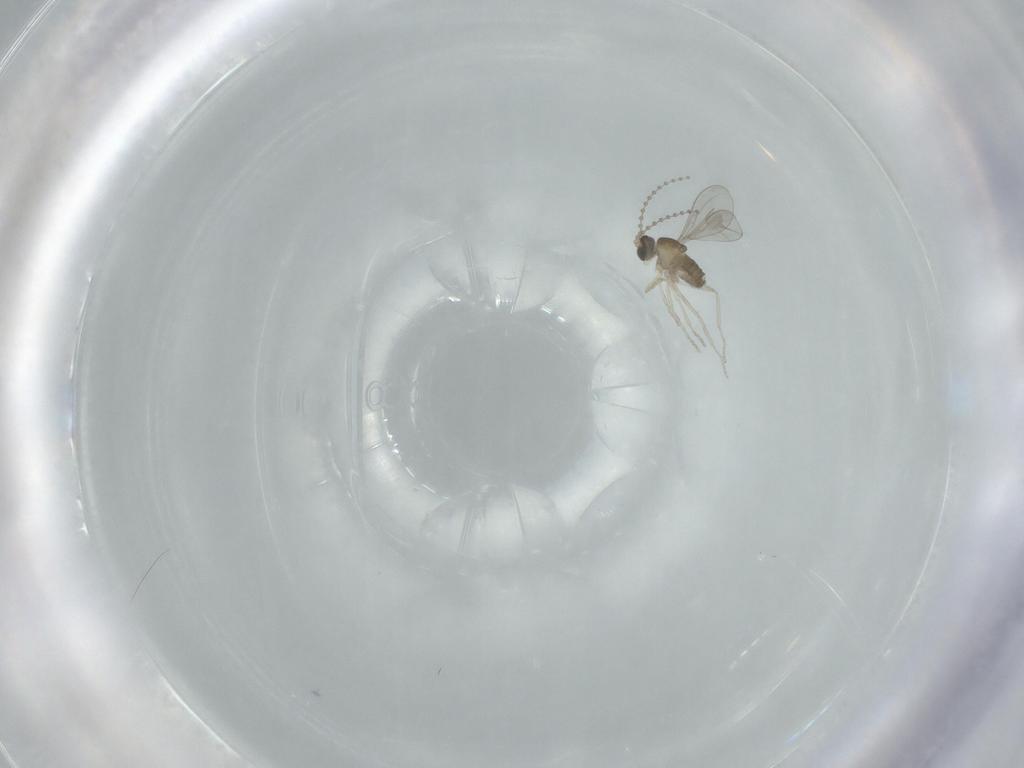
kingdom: Animalia
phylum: Arthropoda
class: Insecta
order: Diptera
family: Cecidomyiidae
